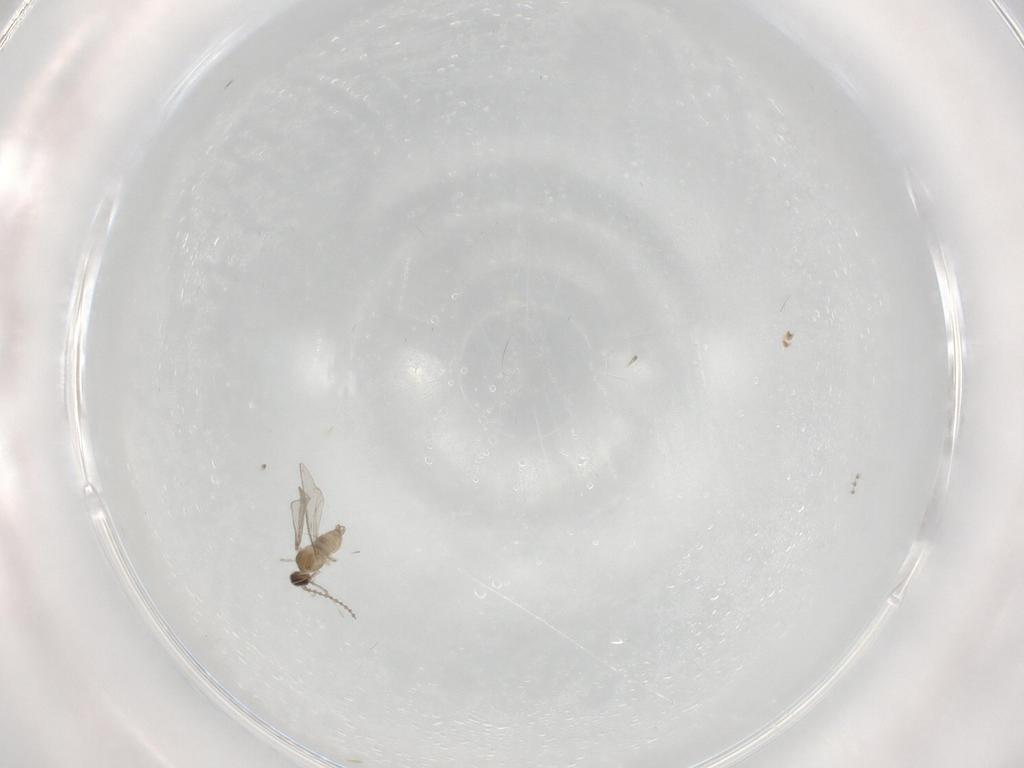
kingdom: Animalia
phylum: Arthropoda
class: Insecta
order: Diptera
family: Cecidomyiidae
